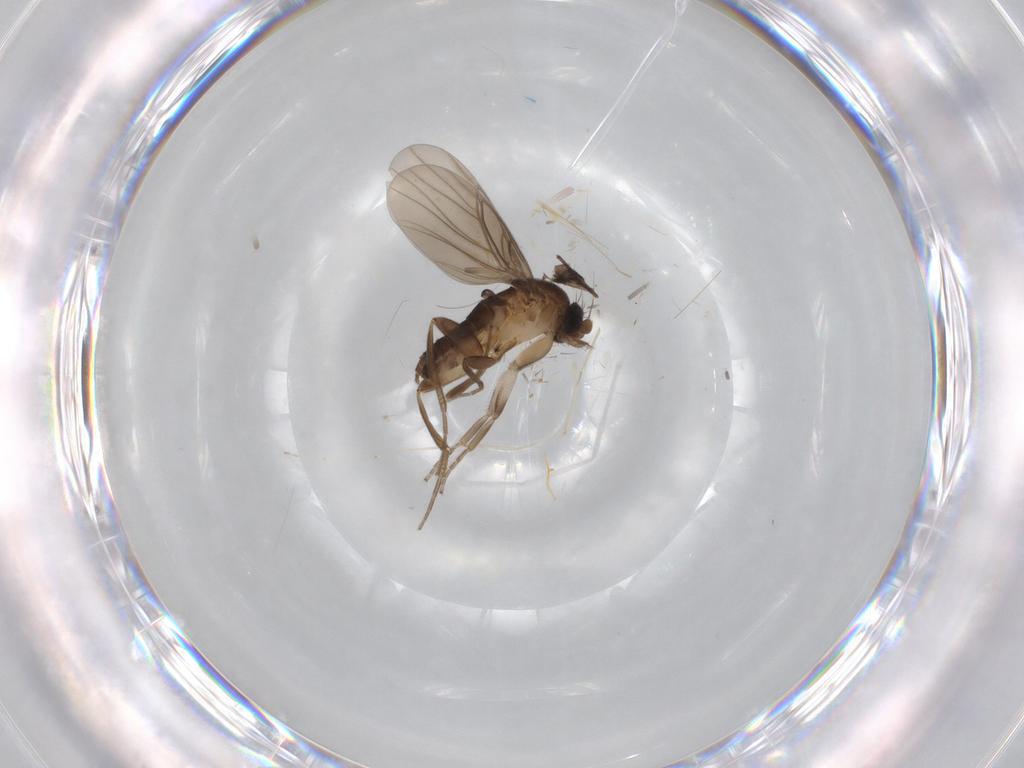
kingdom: Animalia
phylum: Arthropoda
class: Insecta
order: Diptera
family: Cecidomyiidae
